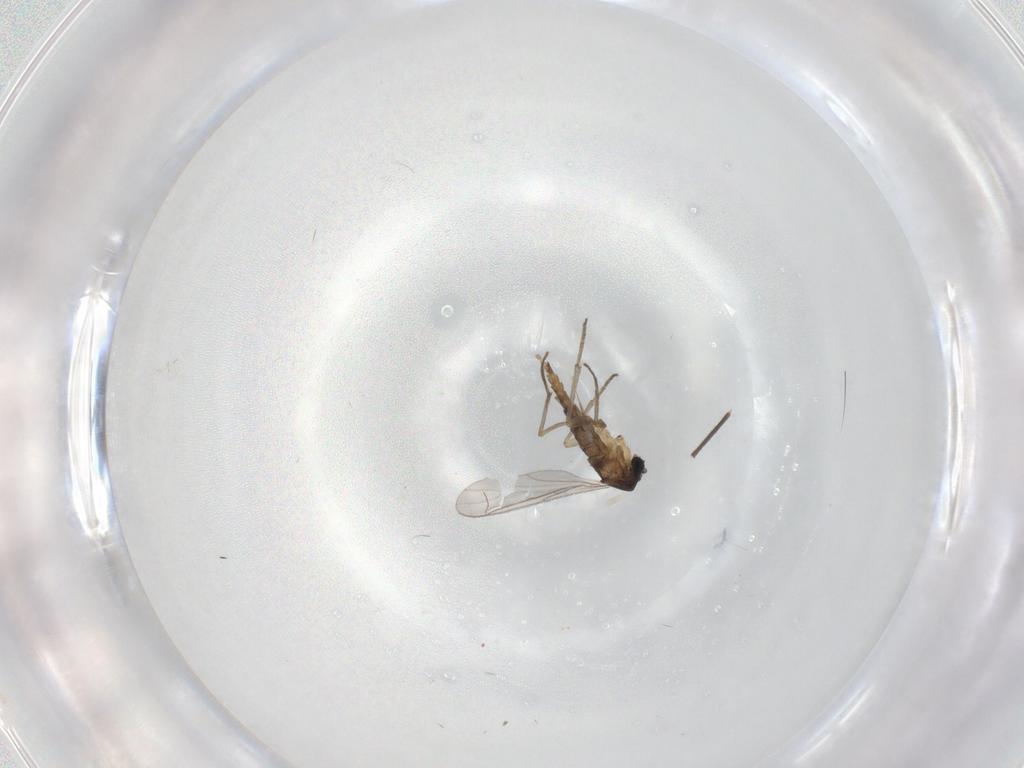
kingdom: Animalia
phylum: Arthropoda
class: Insecta
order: Diptera
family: Sciaridae
